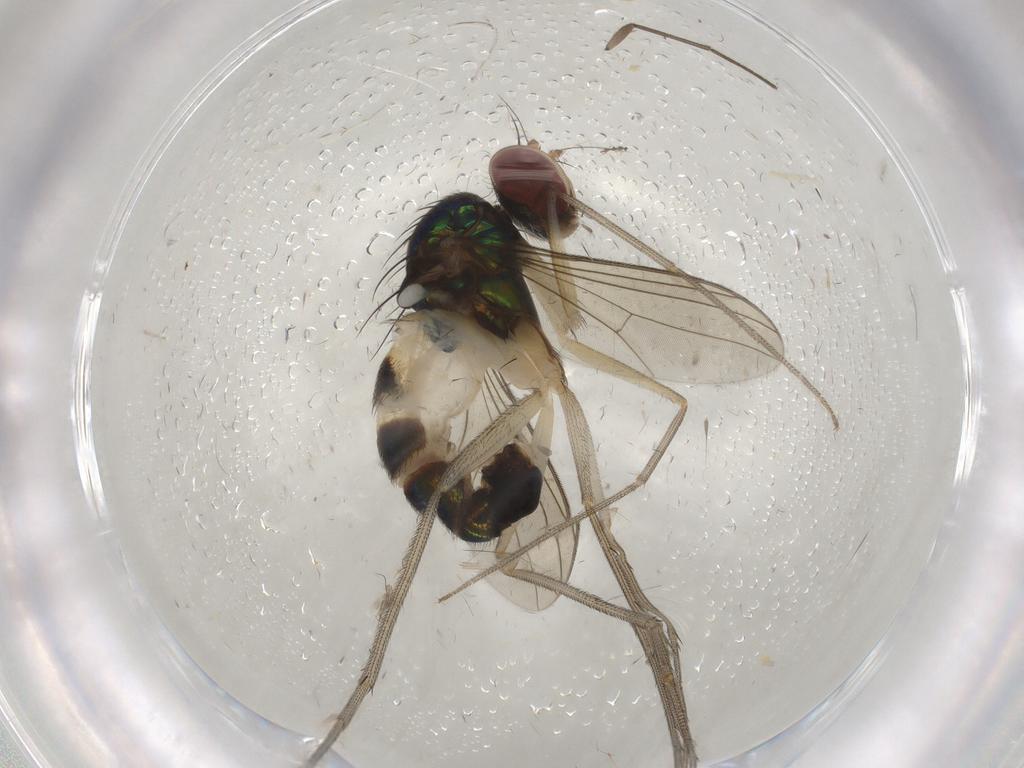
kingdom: Animalia
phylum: Arthropoda
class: Insecta
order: Diptera
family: Dolichopodidae
